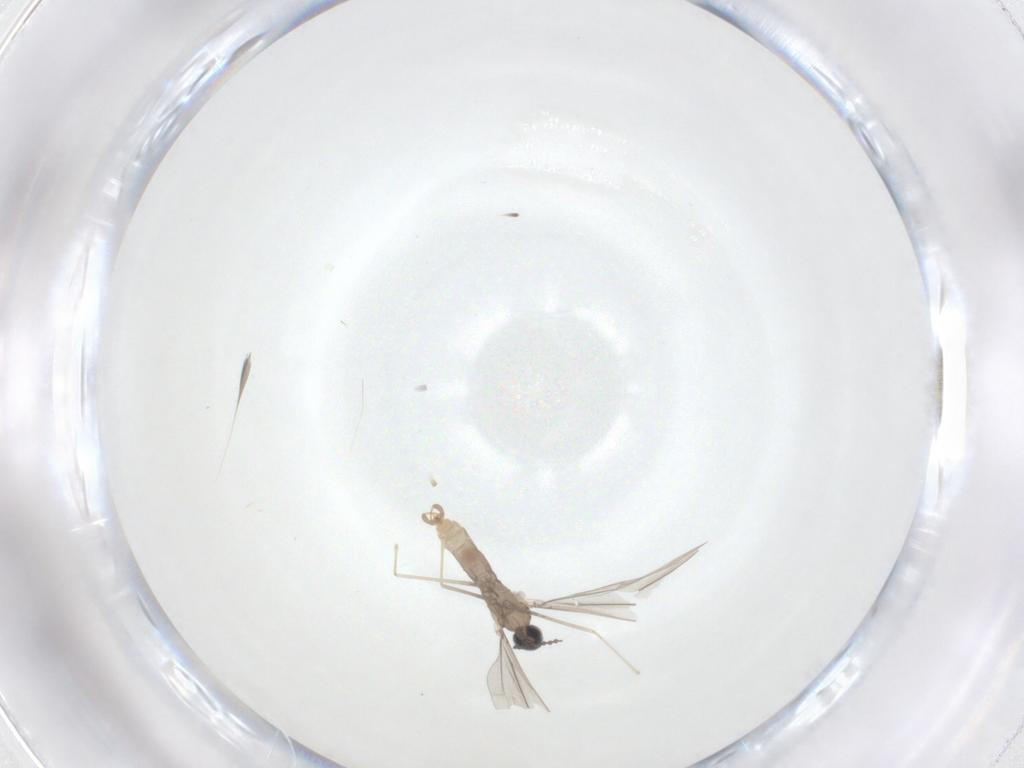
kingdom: Animalia
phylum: Arthropoda
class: Insecta
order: Diptera
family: Cecidomyiidae
